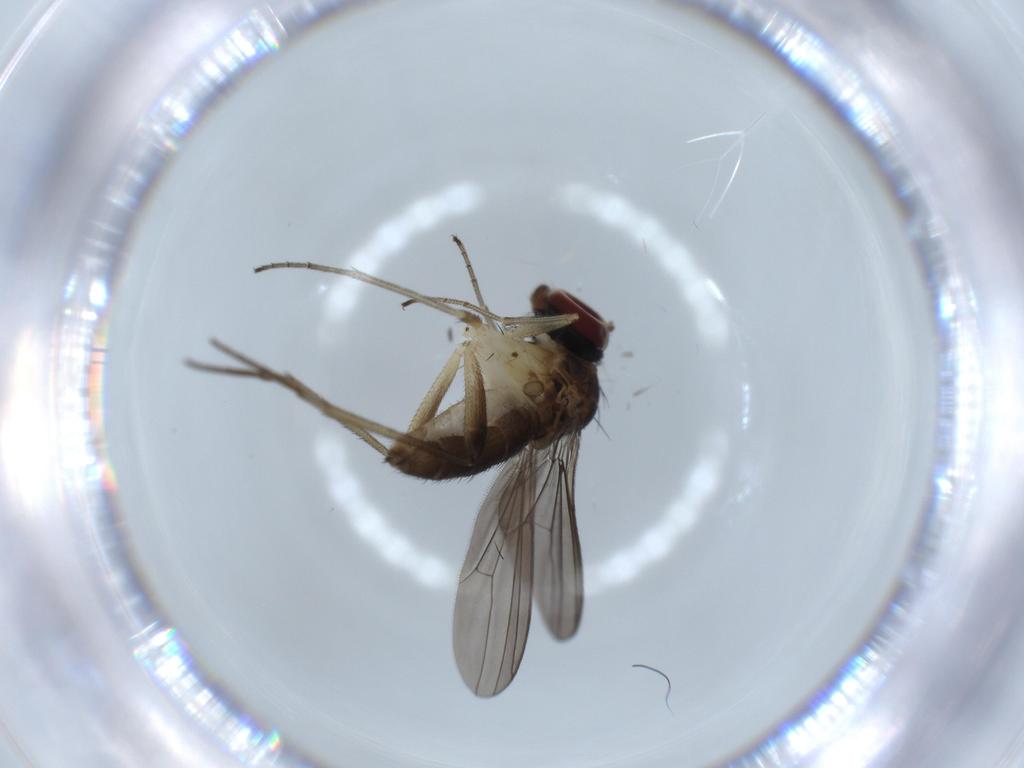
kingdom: Animalia
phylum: Arthropoda
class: Insecta
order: Diptera
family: Dolichopodidae
